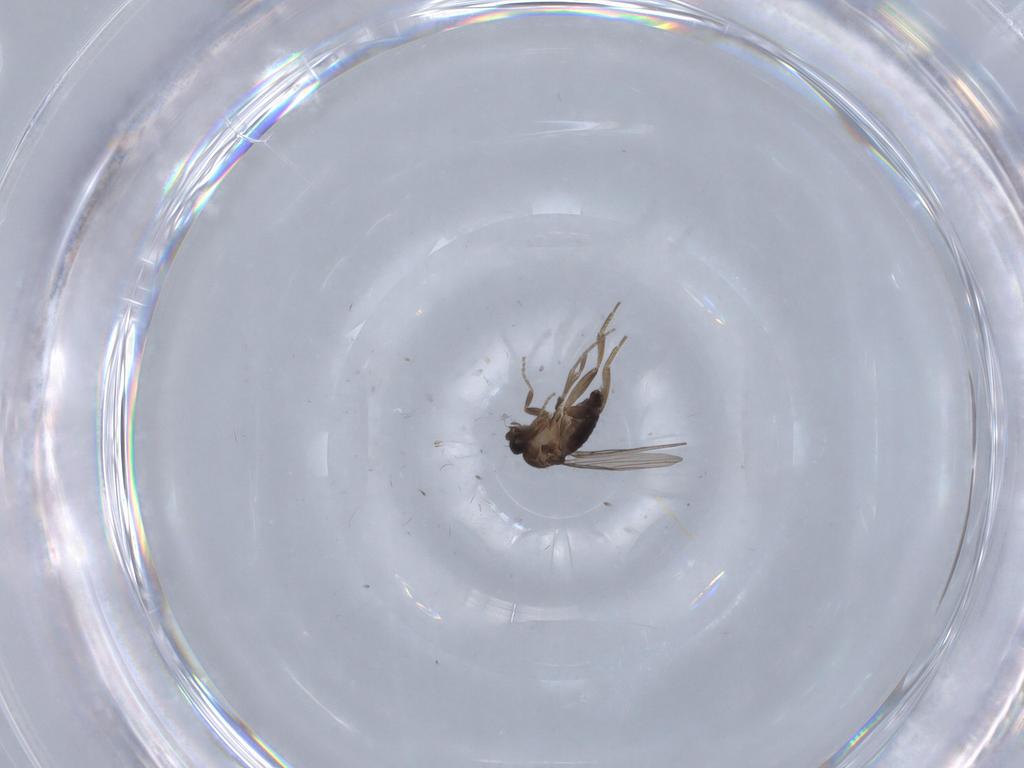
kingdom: Animalia
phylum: Arthropoda
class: Insecta
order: Diptera
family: Phoridae
